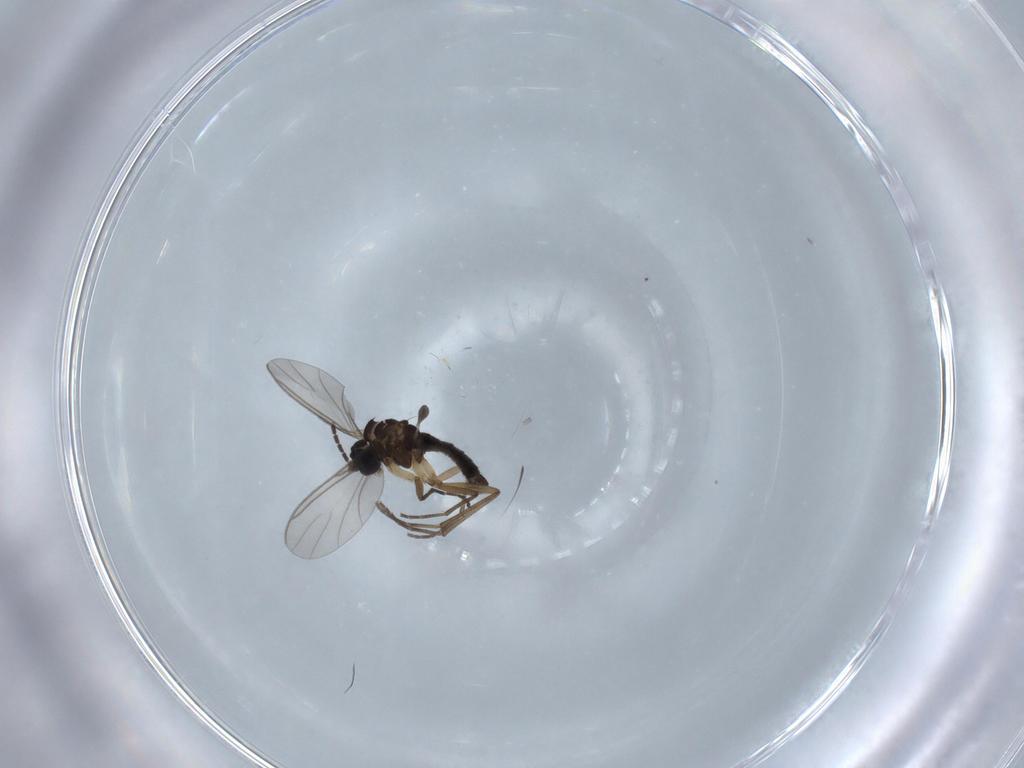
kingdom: Animalia
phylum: Arthropoda
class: Insecta
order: Diptera
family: Sciaridae
